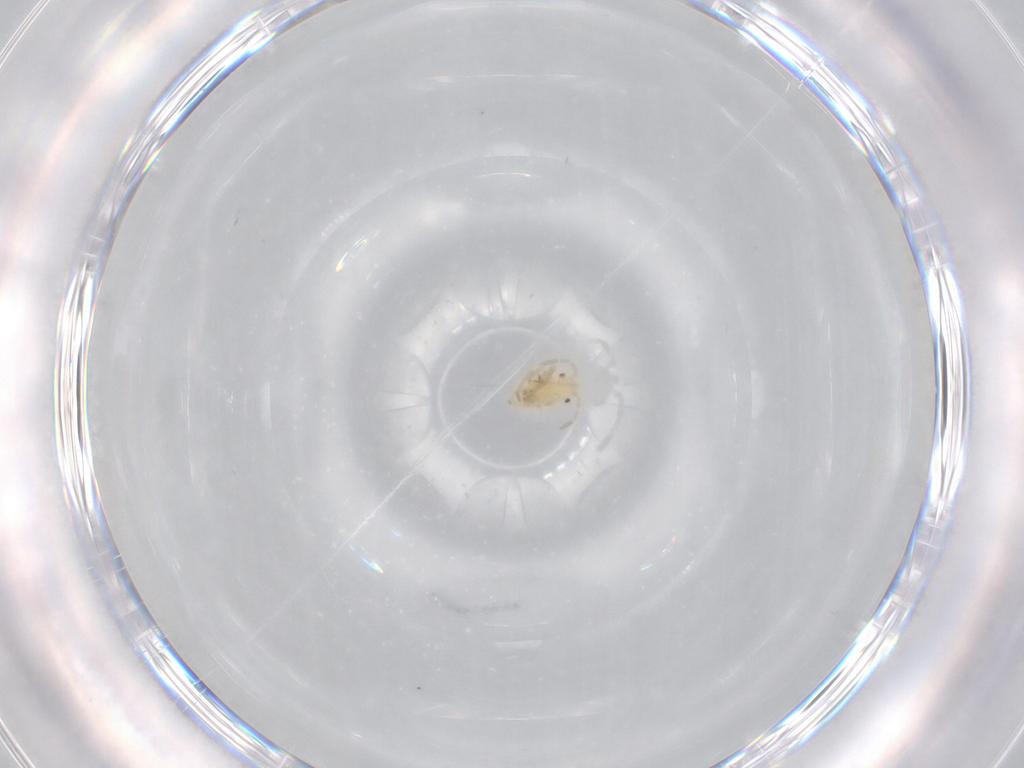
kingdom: Animalia
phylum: Arthropoda
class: Insecta
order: Hemiptera
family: Miridae
